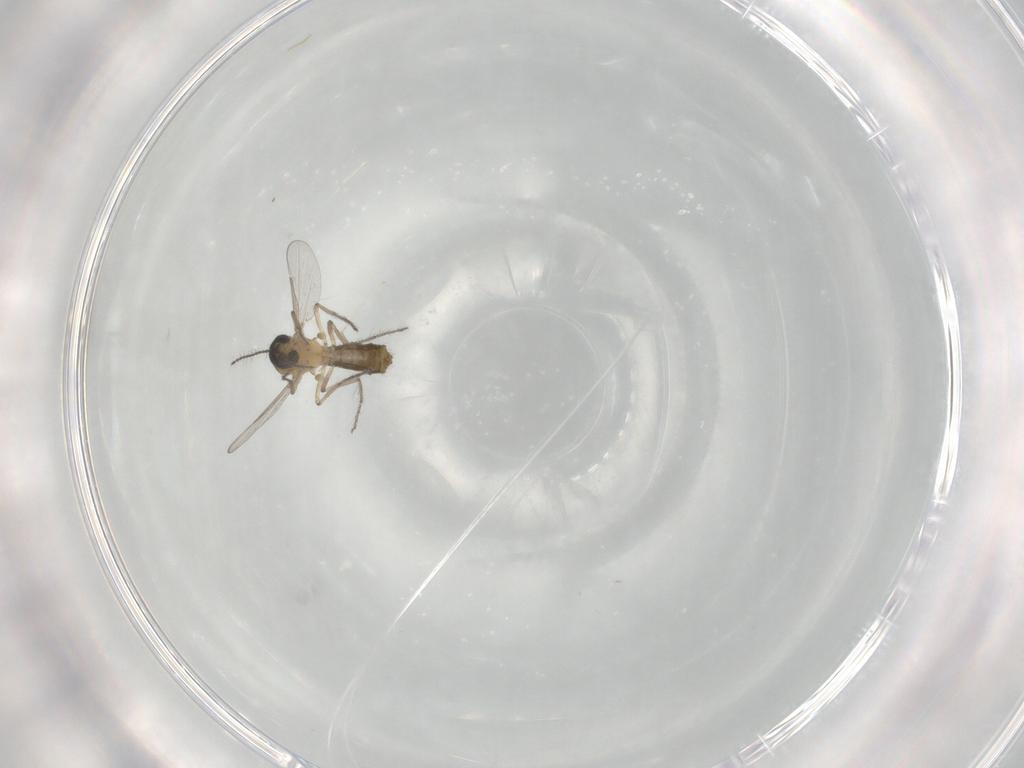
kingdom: Animalia
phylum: Arthropoda
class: Insecta
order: Diptera
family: Ceratopogonidae
